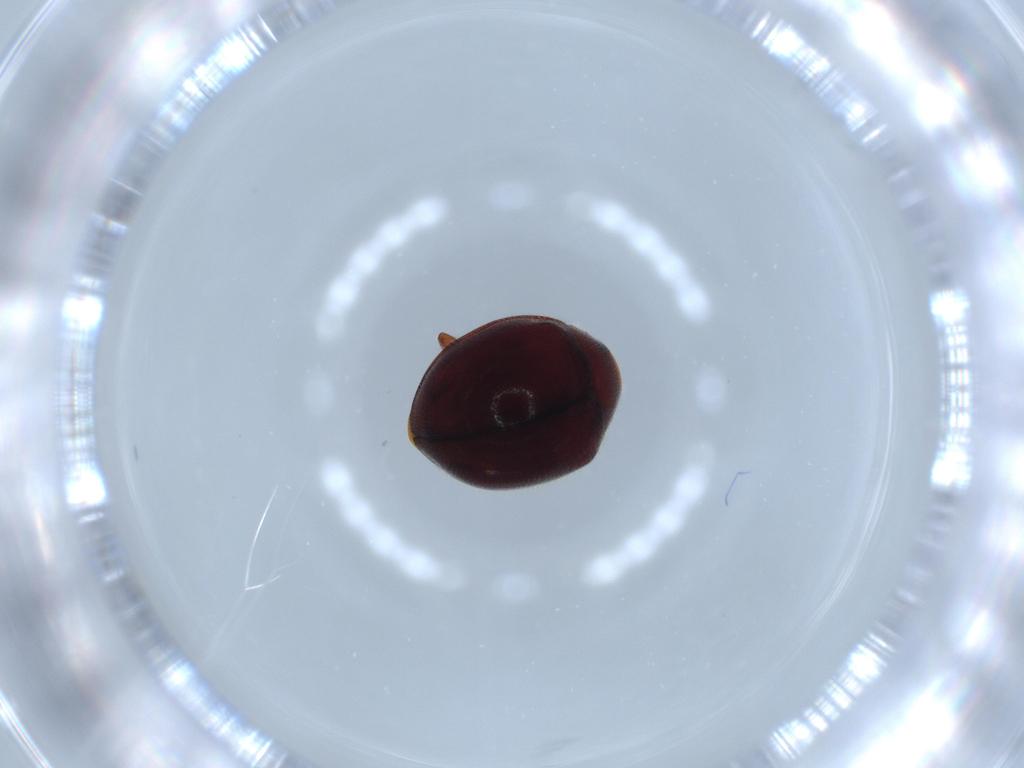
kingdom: Animalia
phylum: Arthropoda
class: Insecta
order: Coleoptera
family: Coccinellidae
